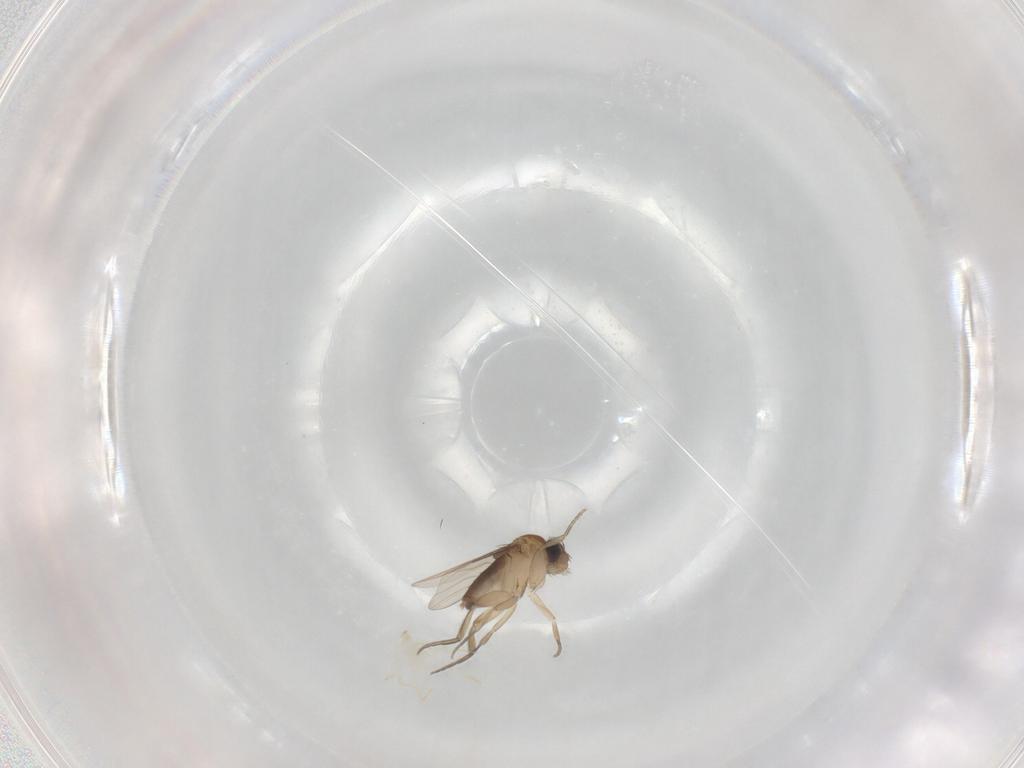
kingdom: Animalia
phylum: Arthropoda
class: Insecta
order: Diptera
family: Phoridae
